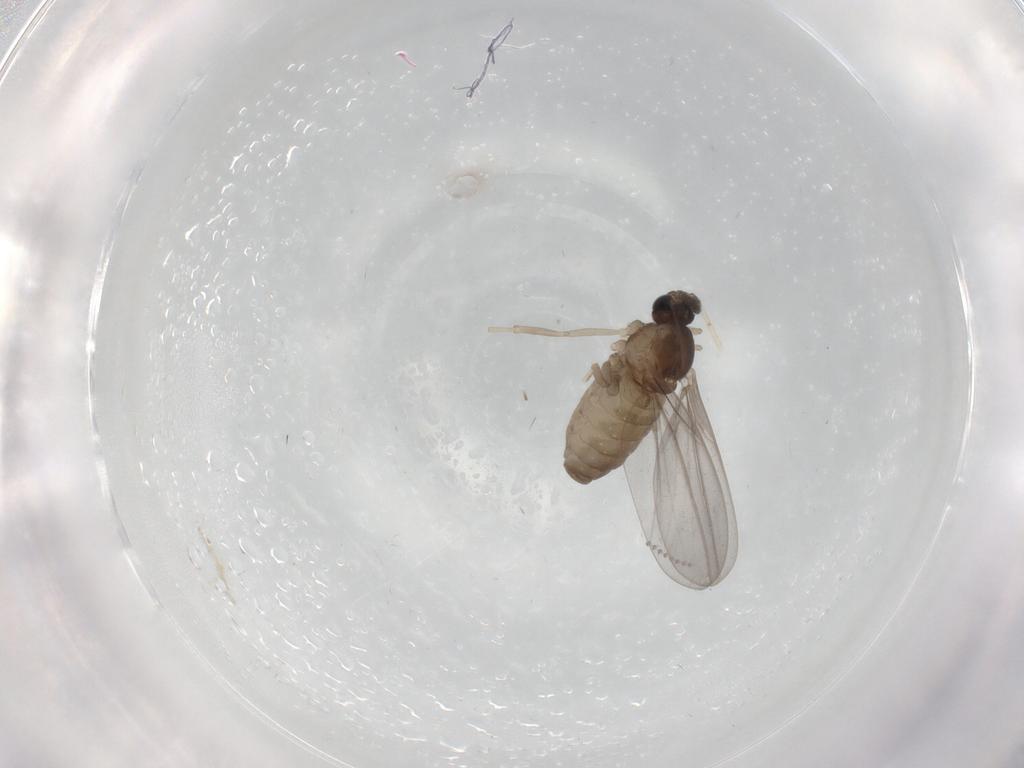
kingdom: Animalia
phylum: Arthropoda
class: Insecta
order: Diptera
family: Cecidomyiidae
